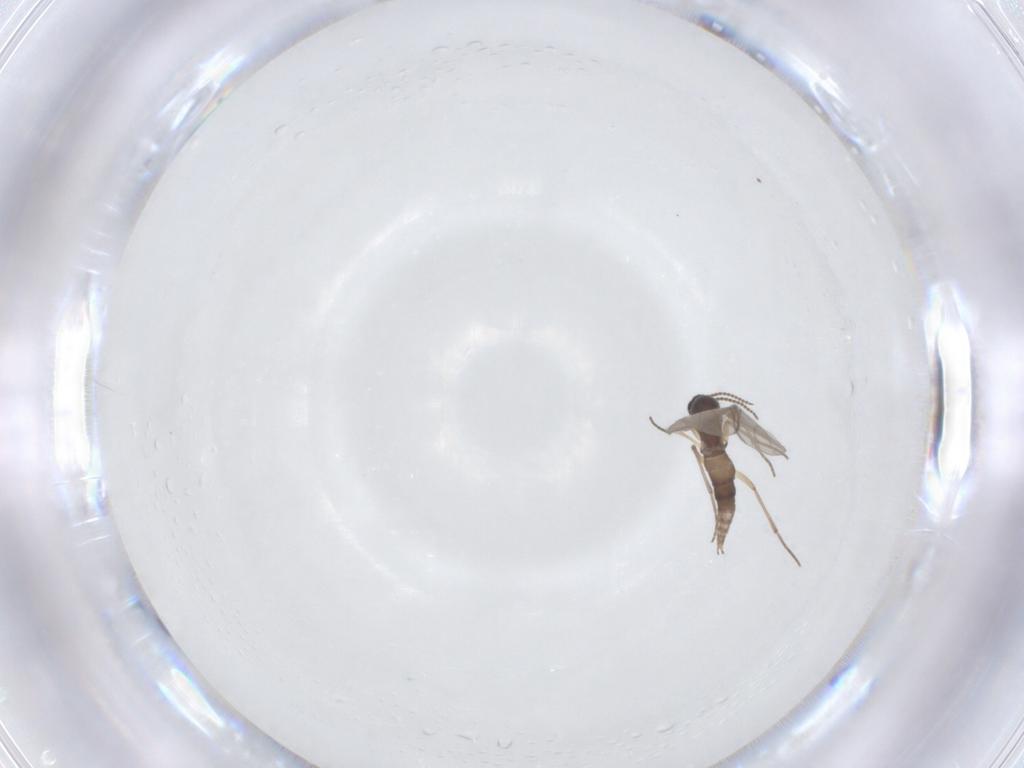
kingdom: Animalia
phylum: Arthropoda
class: Insecta
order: Diptera
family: Sciaridae
